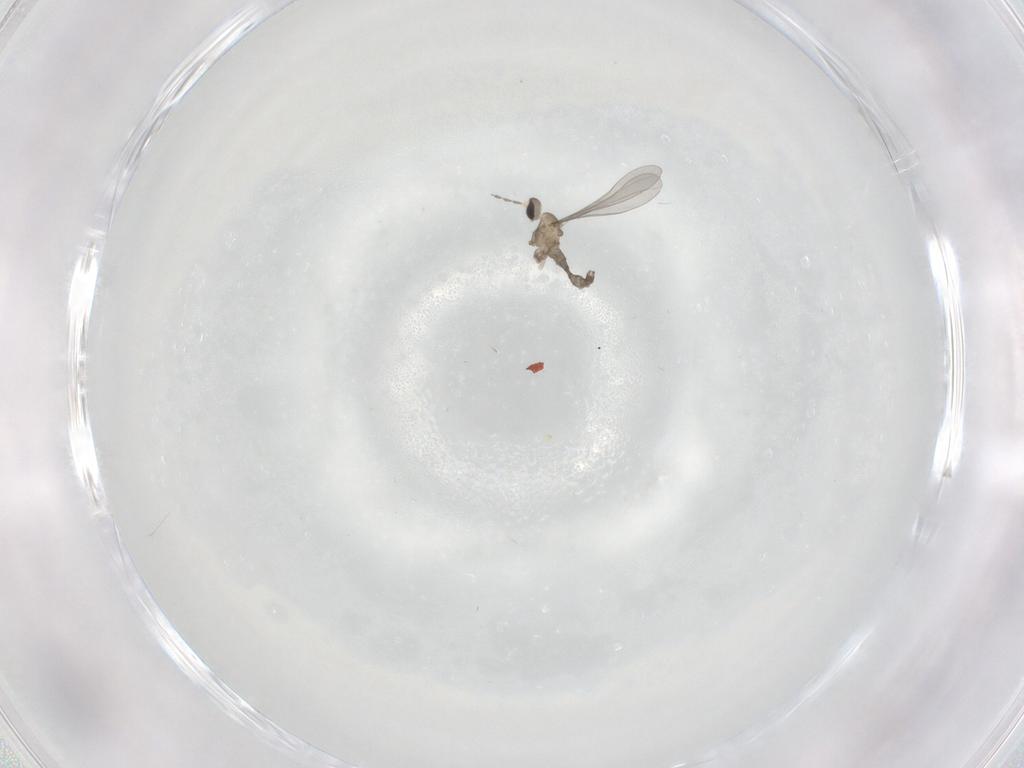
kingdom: Animalia
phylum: Arthropoda
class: Insecta
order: Diptera
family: Cecidomyiidae
